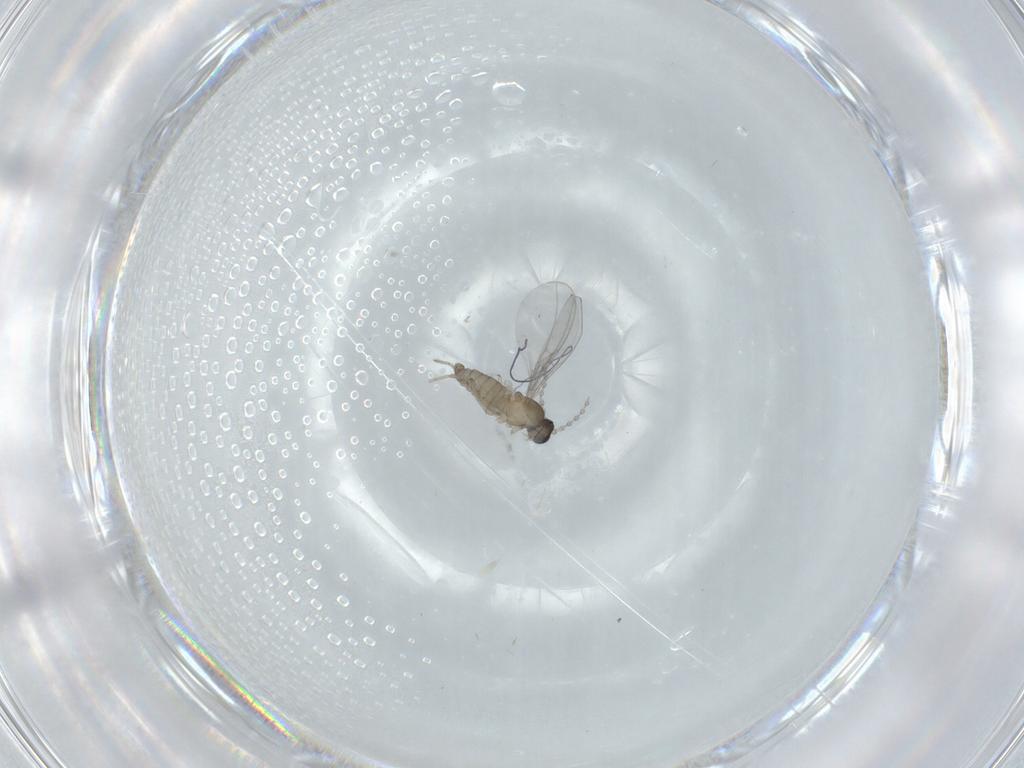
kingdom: Animalia
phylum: Arthropoda
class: Insecta
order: Diptera
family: Cecidomyiidae
